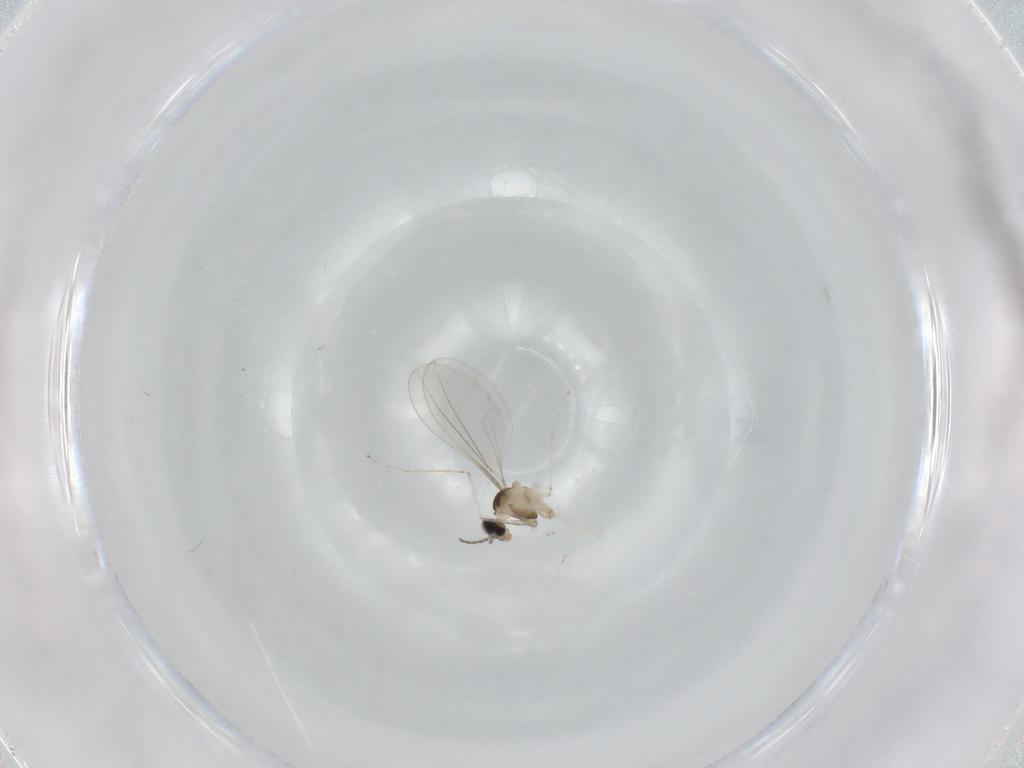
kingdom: Animalia
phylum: Arthropoda
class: Insecta
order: Diptera
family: Cecidomyiidae
